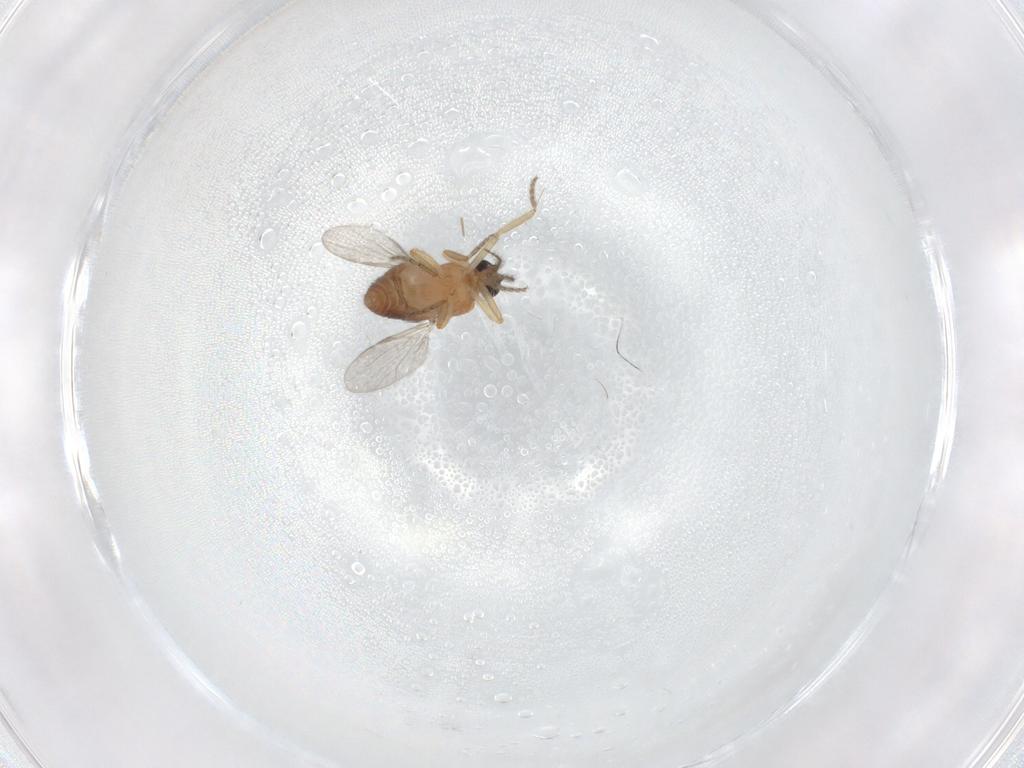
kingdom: Animalia
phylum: Arthropoda
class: Insecta
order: Diptera
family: Ceratopogonidae
